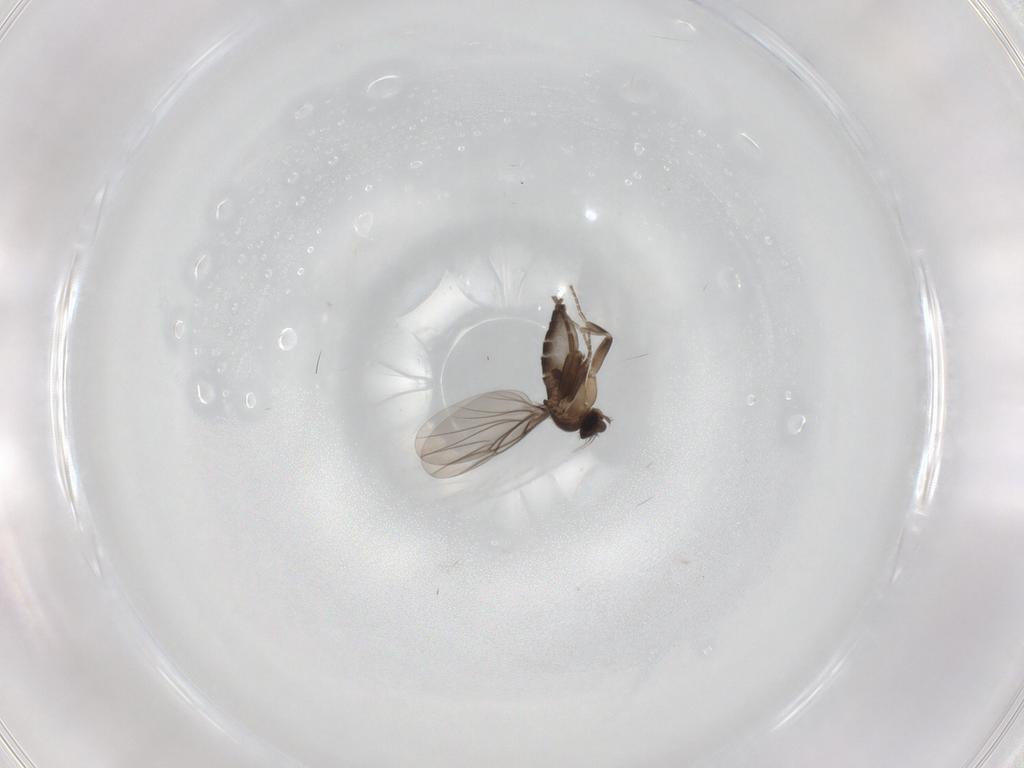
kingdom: Animalia
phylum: Arthropoda
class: Insecta
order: Diptera
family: Phoridae
